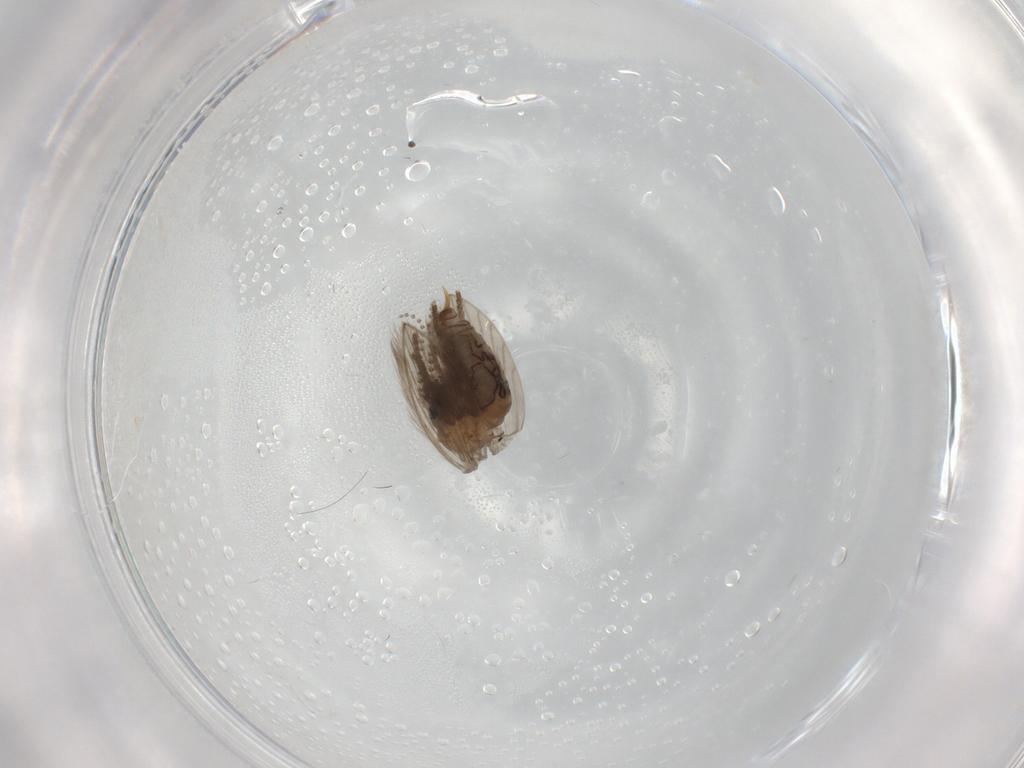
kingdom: Animalia
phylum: Arthropoda
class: Insecta
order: Diptera
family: Psychodidae
